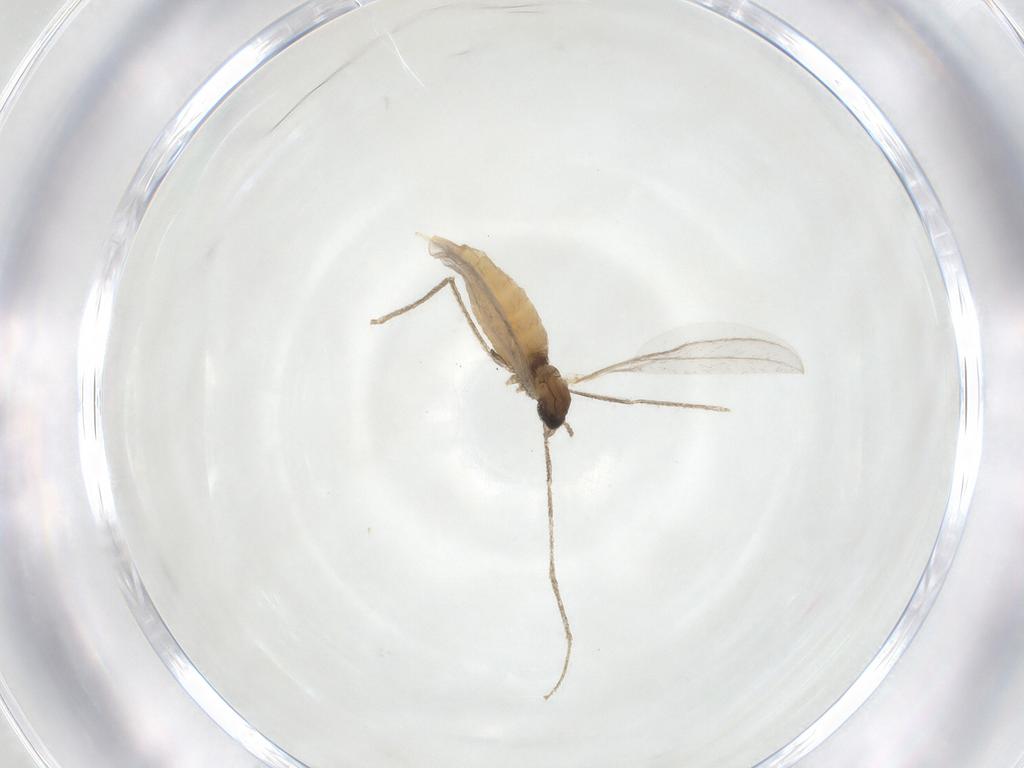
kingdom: Animalia
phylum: Arthropoda
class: Insecta
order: Diptera
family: Cecidomyiidae
